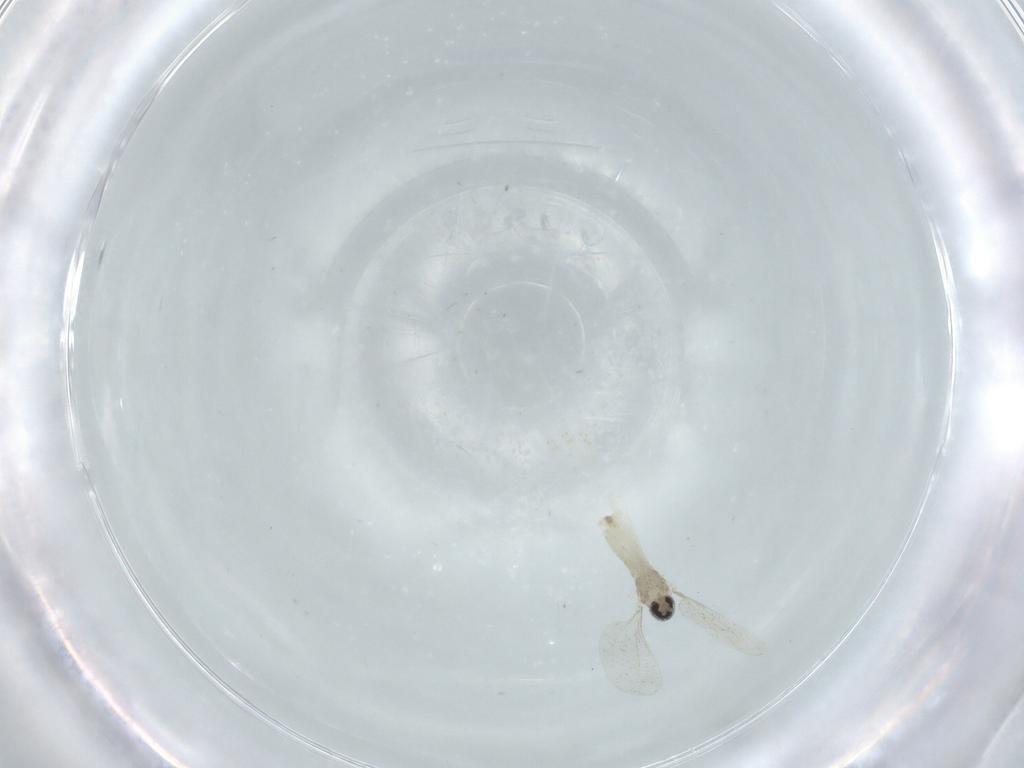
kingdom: Animalia
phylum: Arthropoda
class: Insecta
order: Diptera
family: Cecidomyiidae
